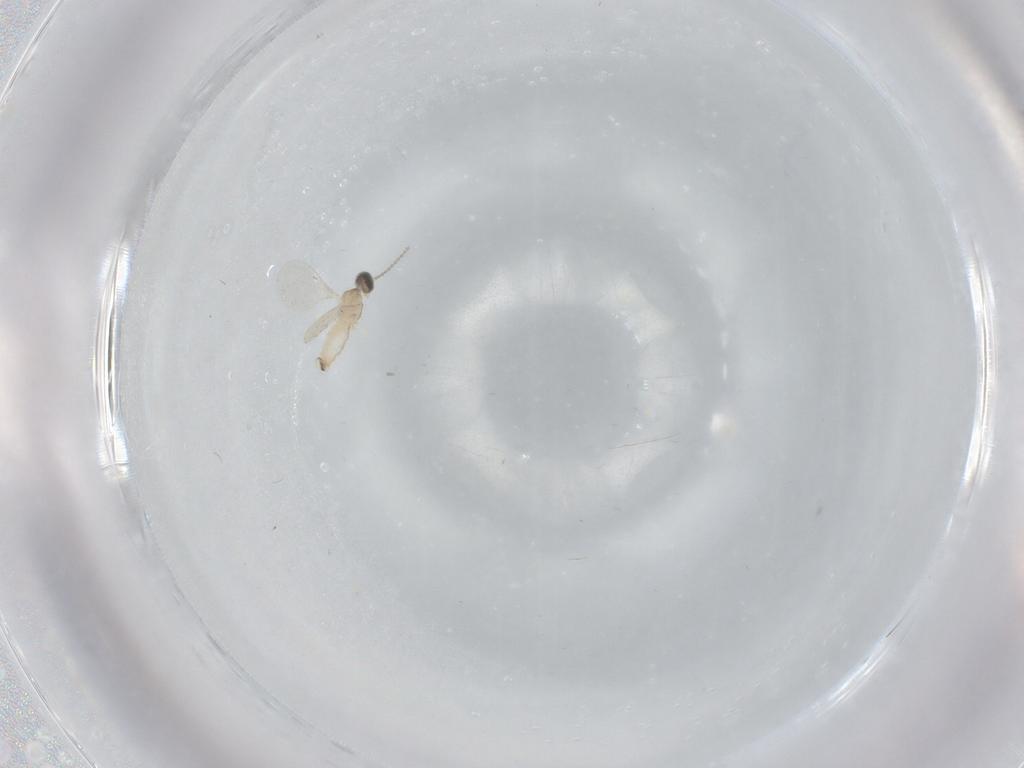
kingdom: Animalia
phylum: Arthropoda
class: Insecta
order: Diptera
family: Cecidomyiidae
